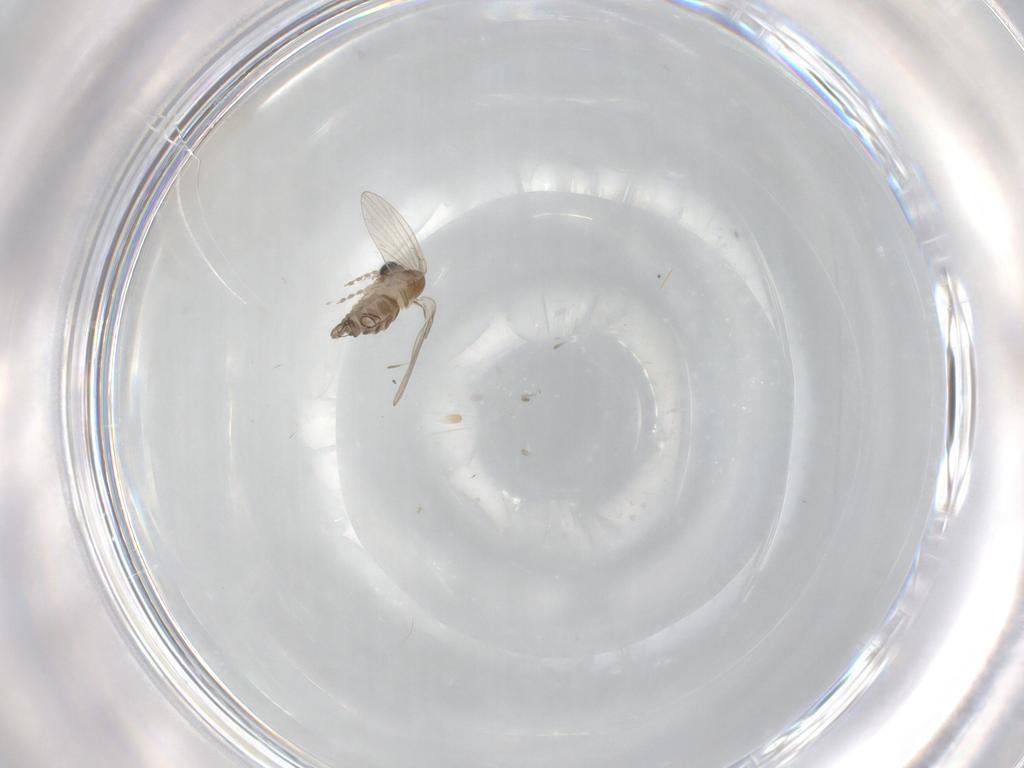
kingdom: Animalia
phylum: Arthropoda
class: Insecta
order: Diptera
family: Psychodidae
